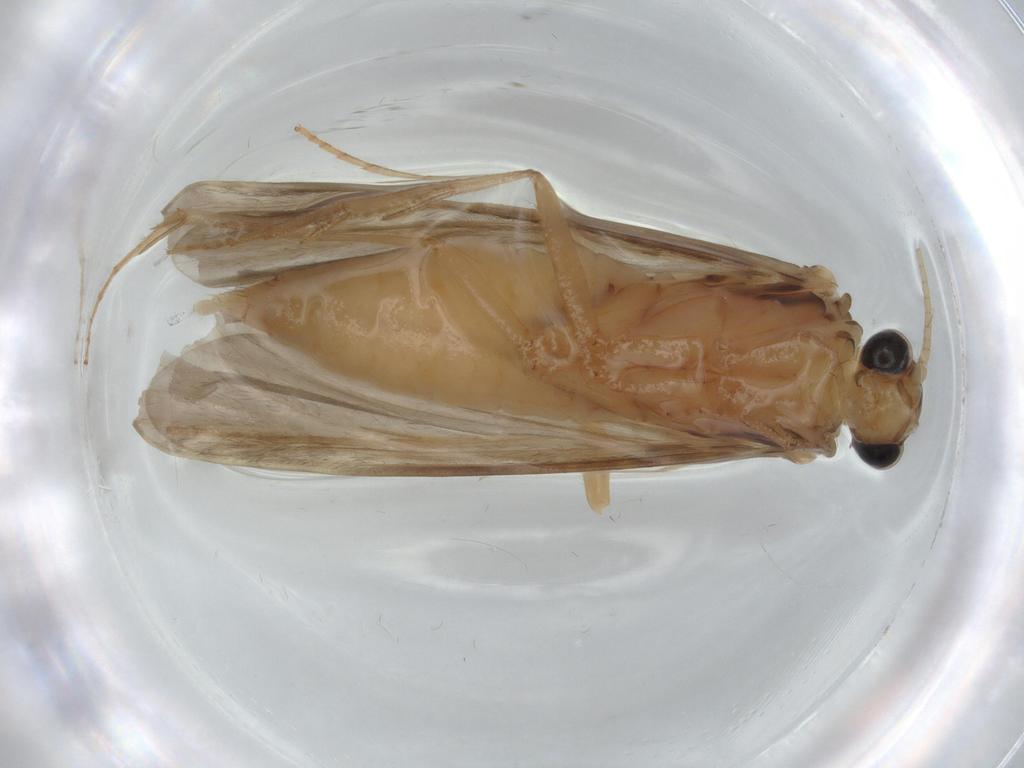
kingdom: Animalia
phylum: Arthropoda
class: Insecta
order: Trichoptera
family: Ecnomidae
